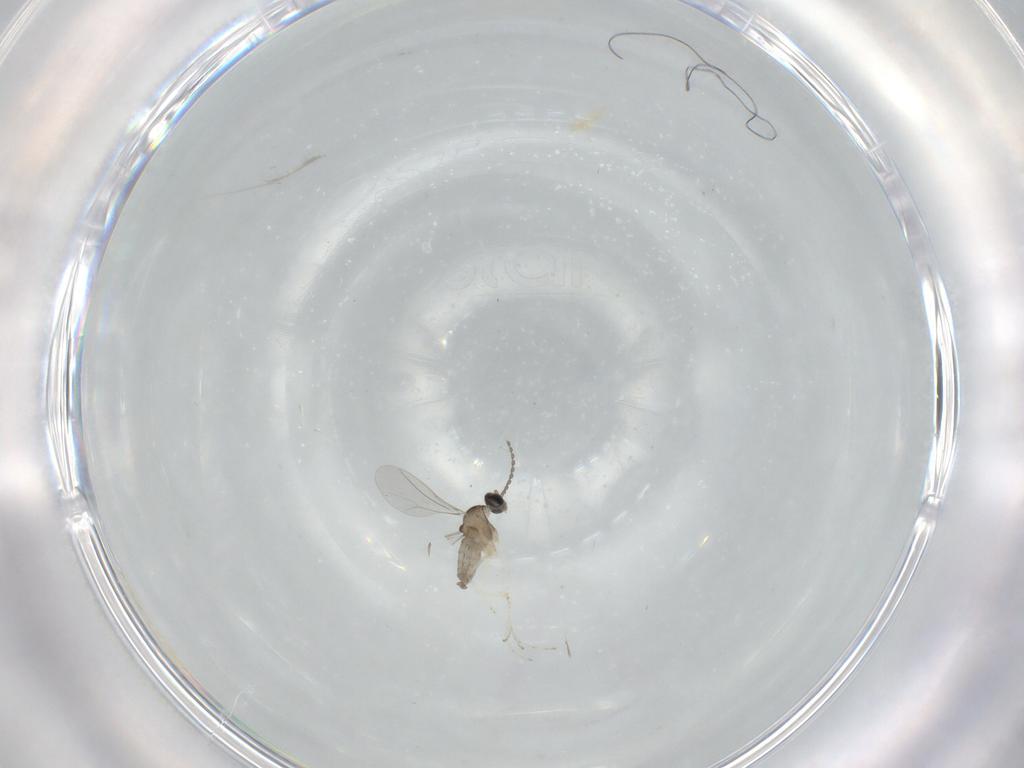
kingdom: Animalia
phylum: Arthropoda
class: Insecta
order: Diptera
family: Cecidomyiidae
